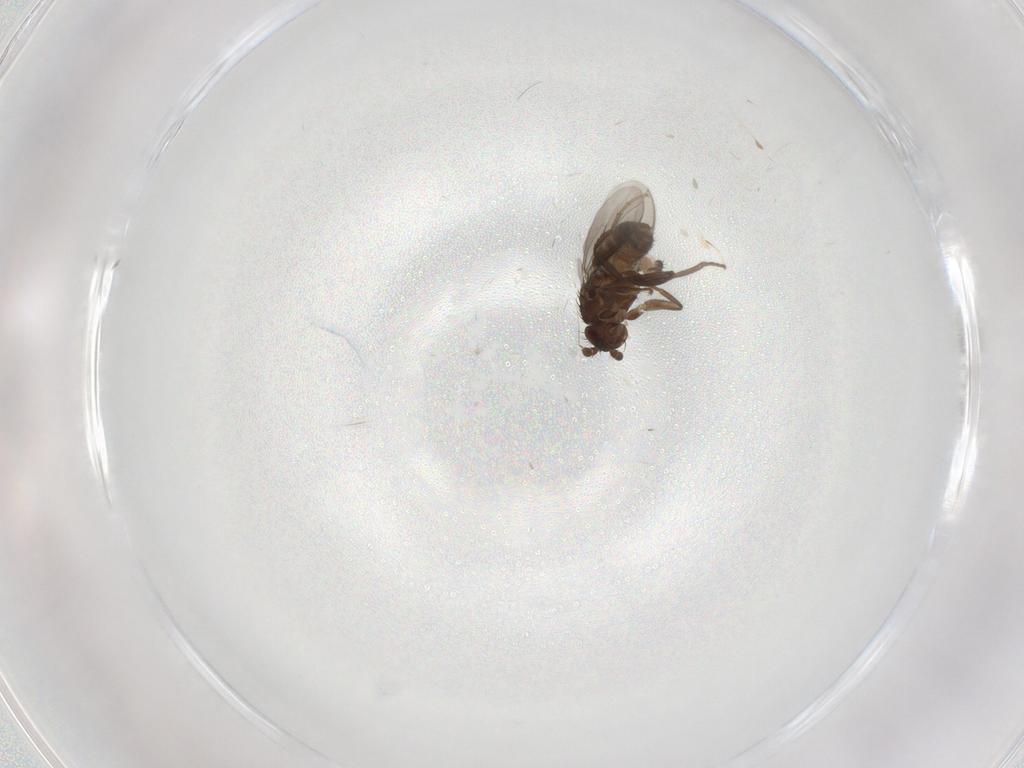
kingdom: Animalia
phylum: Arthropoda
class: Insecta
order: Diptera
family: Sphaeroceridae
